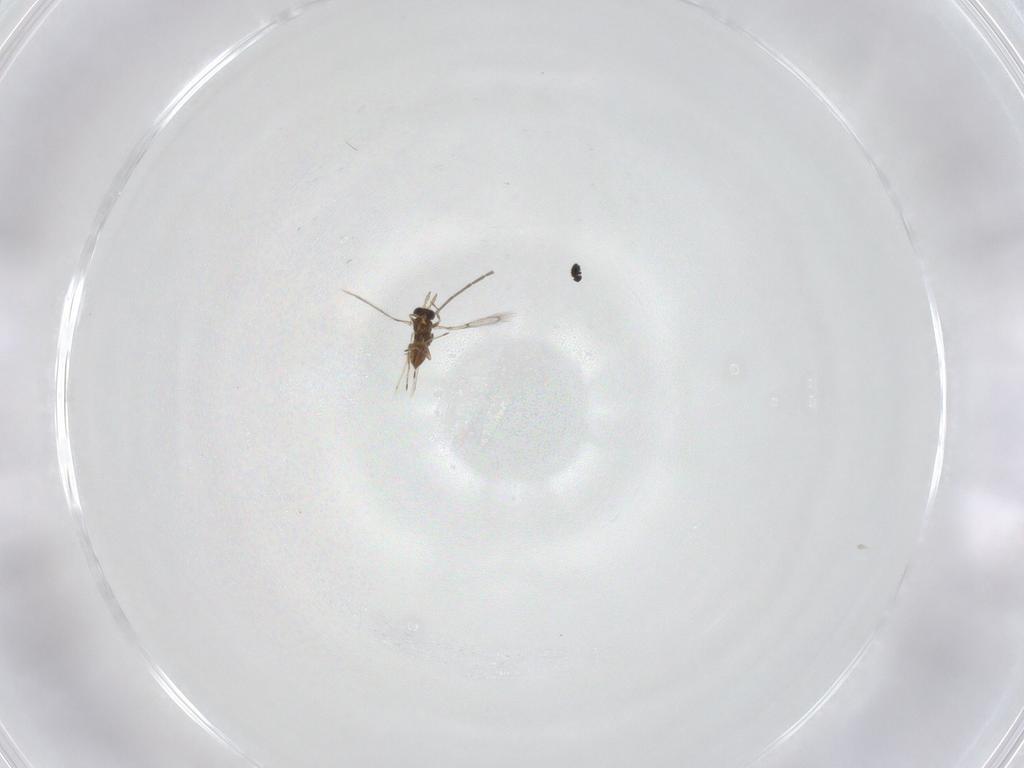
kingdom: Animalia
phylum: Arthropoda
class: Insecta
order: Hymenoptera
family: Trichogrammatidae
